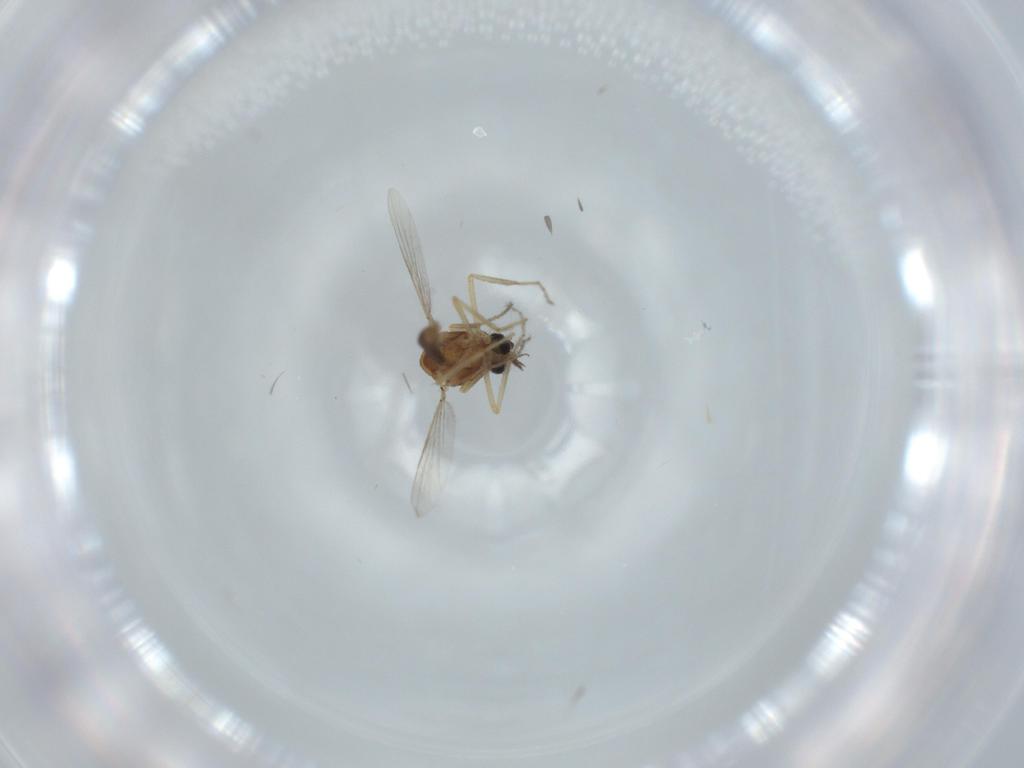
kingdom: Animalia
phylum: Arthropoda
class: Insecta
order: Diptera
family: Ceratopogonidae
